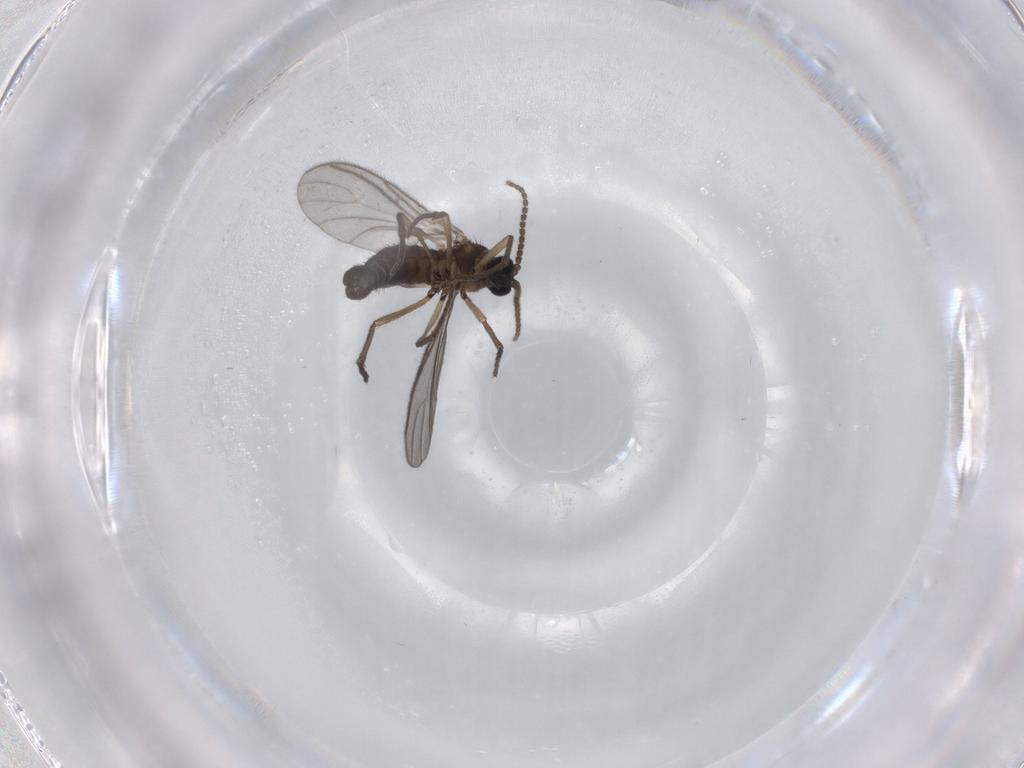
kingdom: Animalia
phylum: Arthropoda
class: Insecta
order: Diptera
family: Sciaridae
